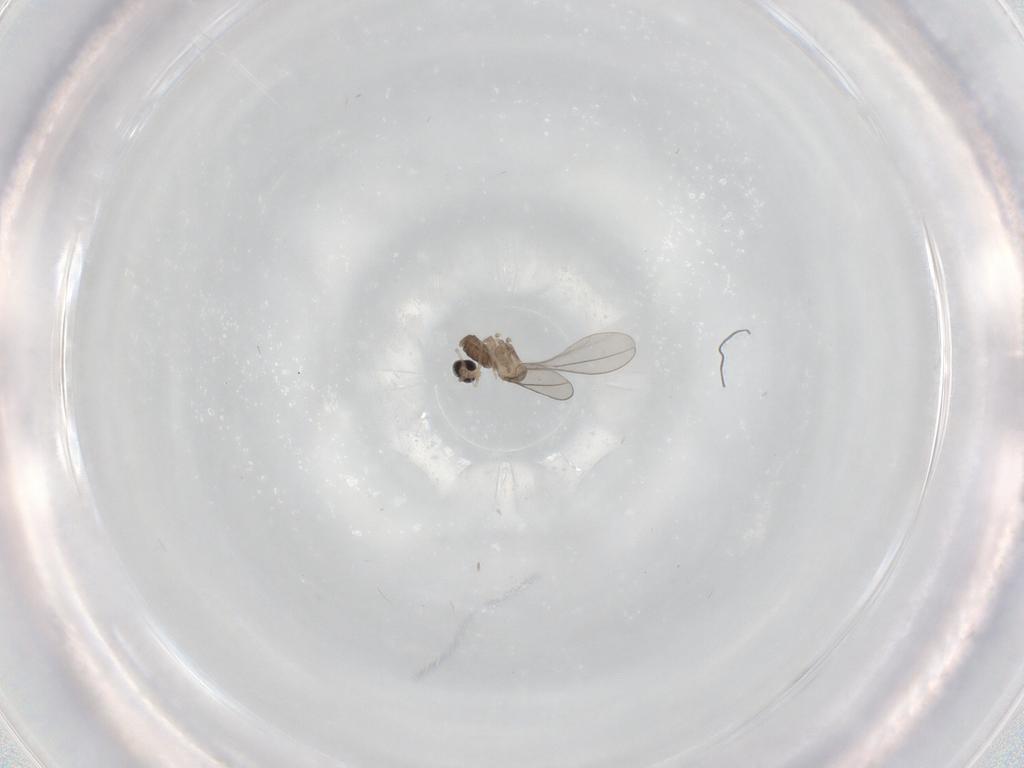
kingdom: Animalia
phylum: Arthropoda
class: Insecta
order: Diptera
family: Cecidomyiidae
